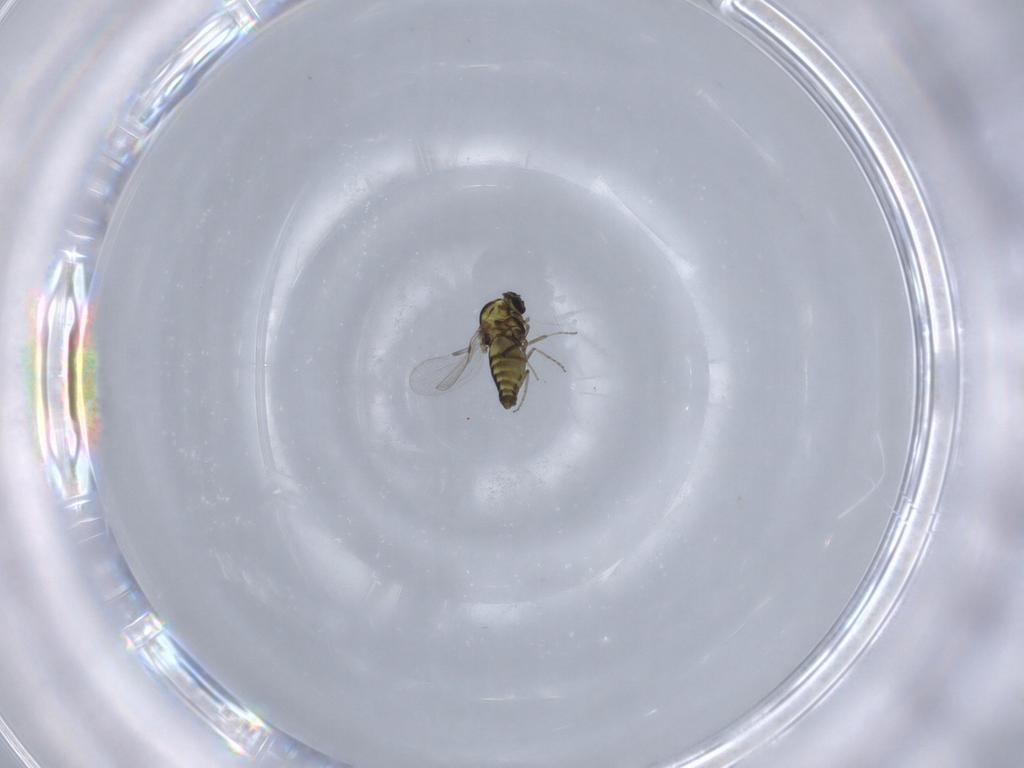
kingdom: Animalia
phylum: Arthropoda
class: Insecta
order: Diptera
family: Ceratopogonidae
